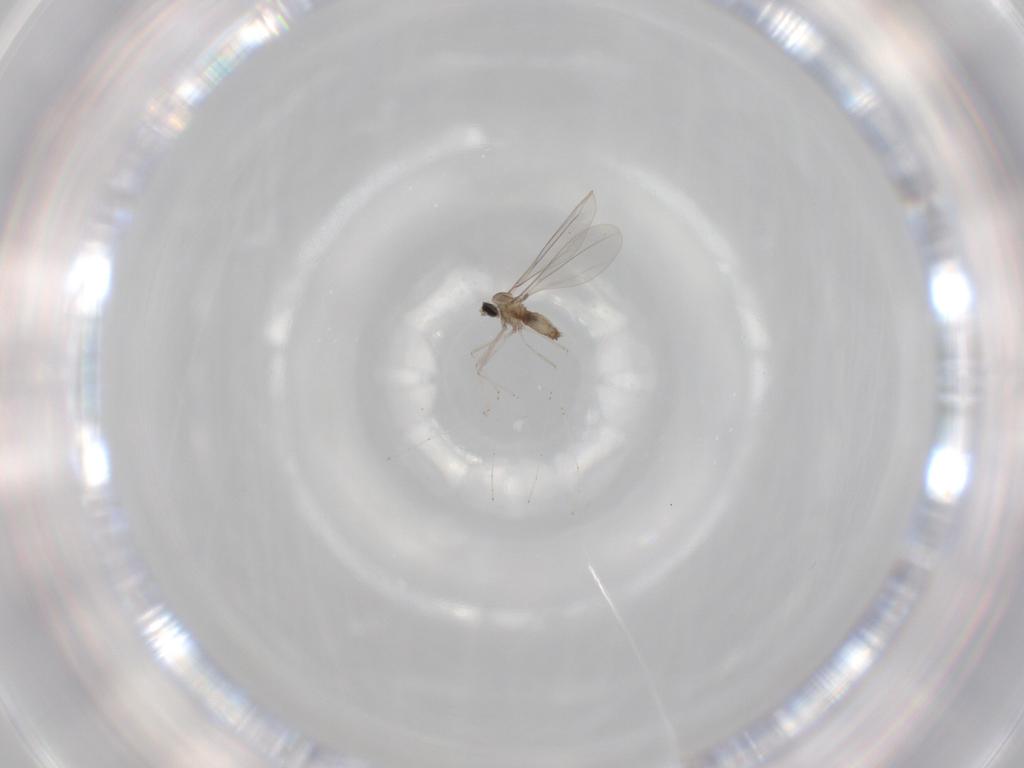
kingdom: Animalia
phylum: Arthropoda
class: Insecta
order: Diptera
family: Cecidomyiidae
